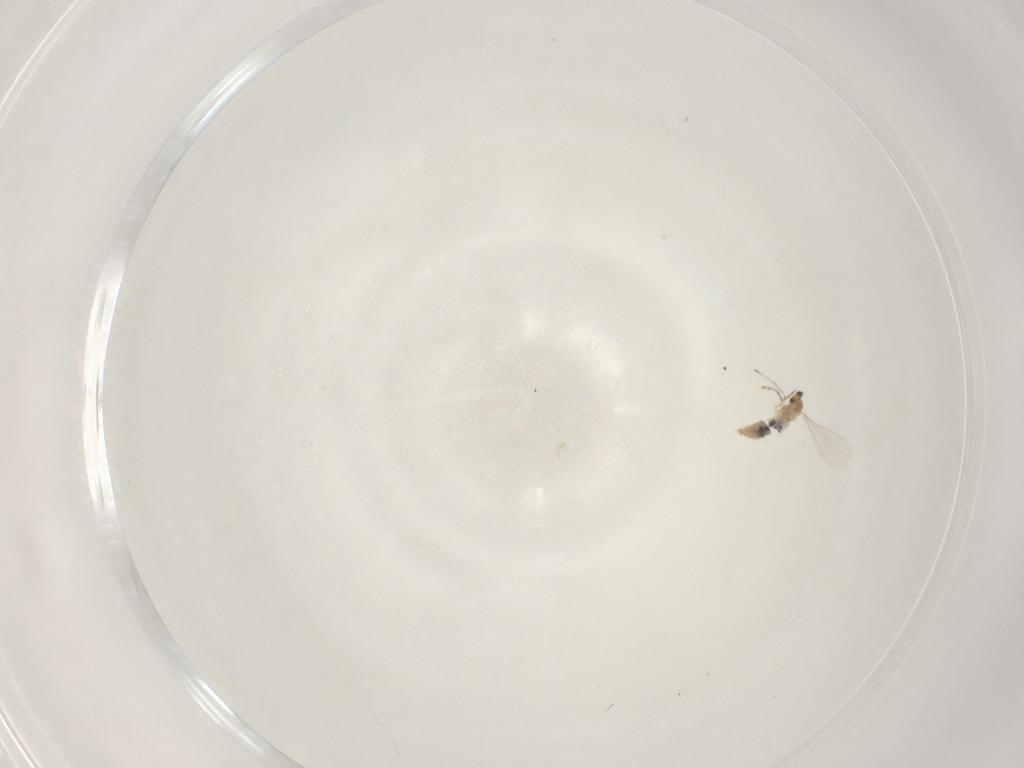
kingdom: Animalia
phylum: Arthropoda
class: Insecta
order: Diptera
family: Cecidomyiidae
